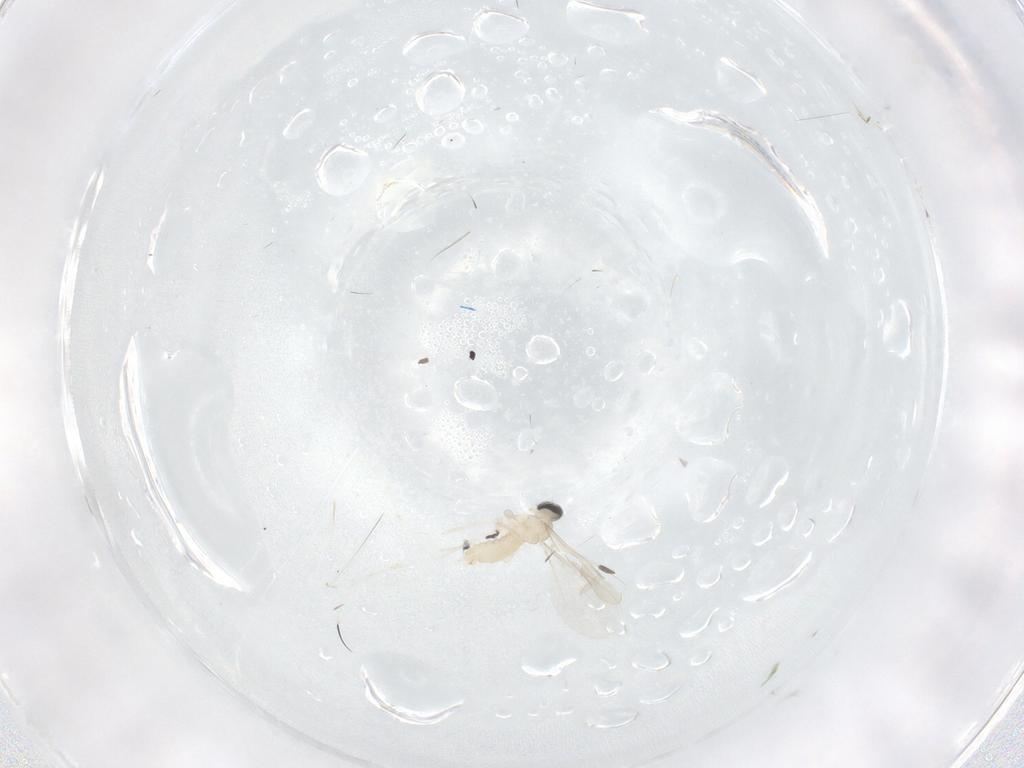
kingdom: Animalia
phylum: Arthropoda
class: Insecta
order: Diptera
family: Cecidomyiidae
